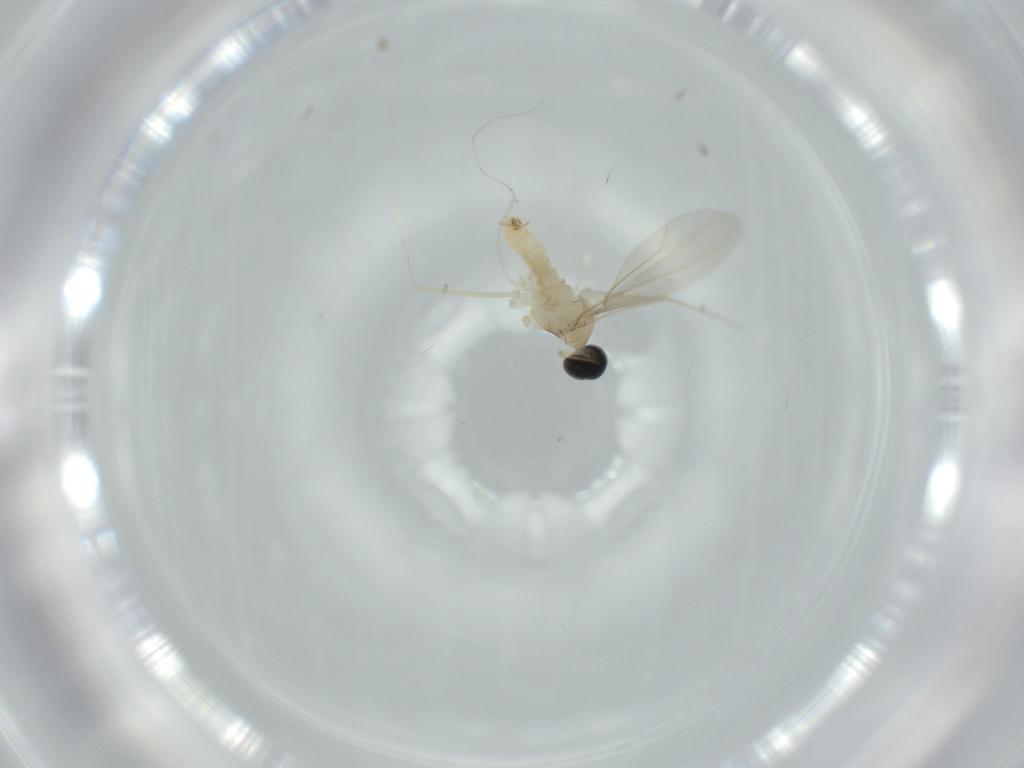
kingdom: Animalia
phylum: Arthropoda
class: Insecta
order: Diptera
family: Cecidomyiidae
